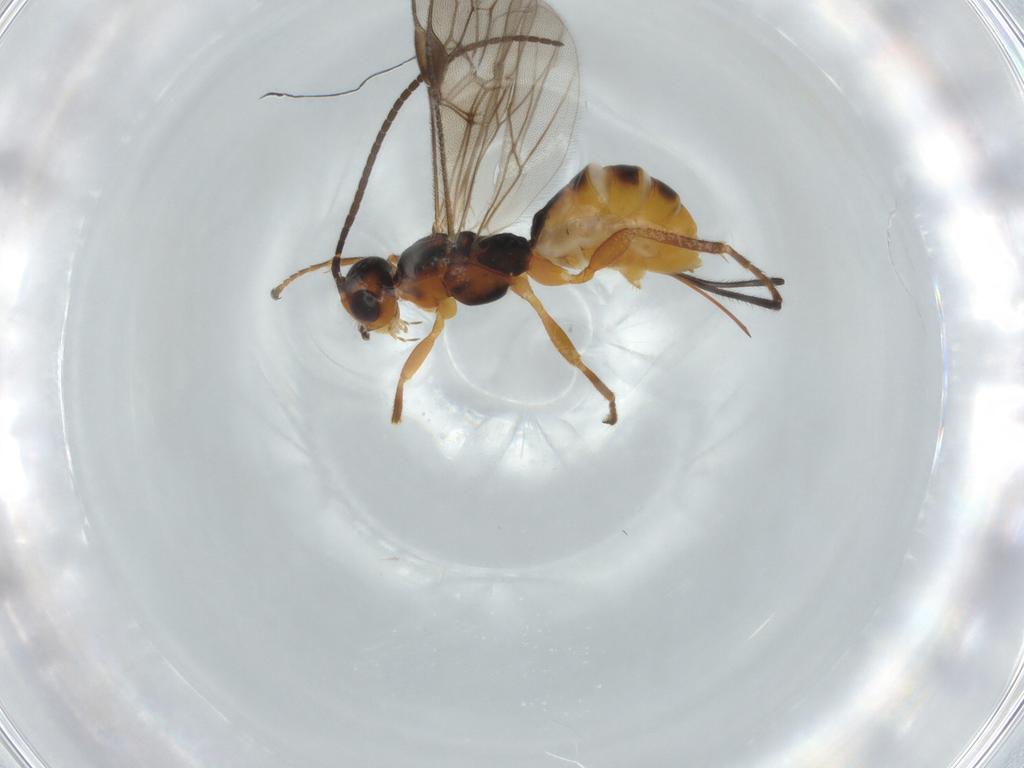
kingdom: Animalia
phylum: Arthropoda
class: Insecta
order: Hymenoptera
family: Braconidae
